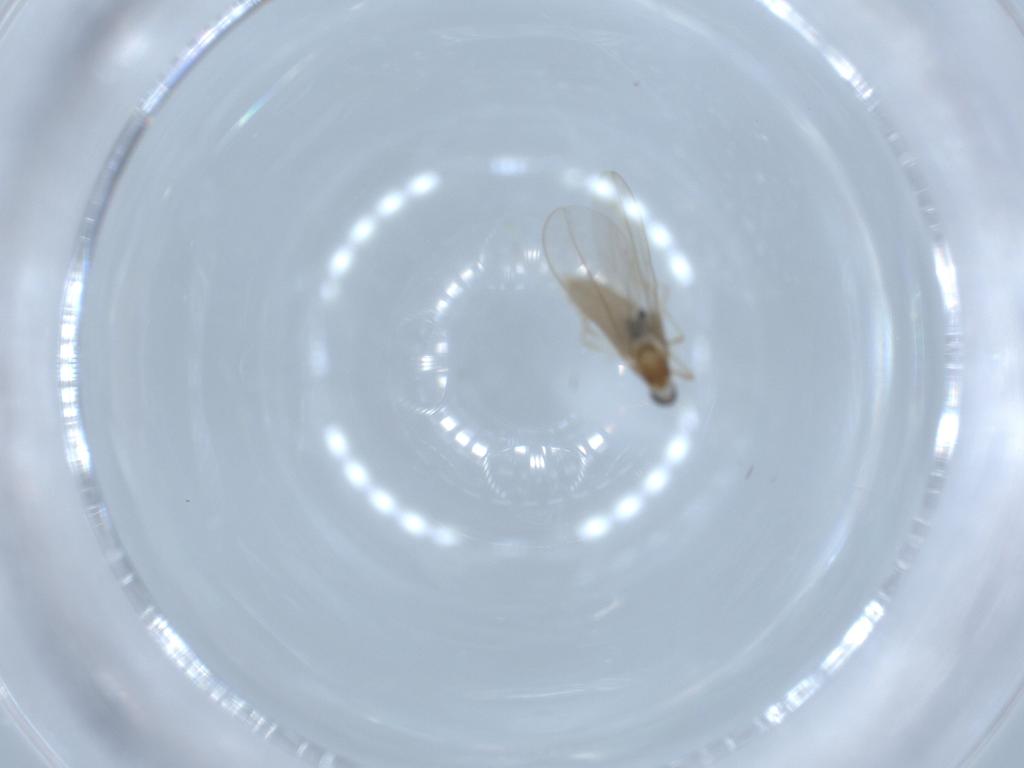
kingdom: Animalia
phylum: Arthropoda
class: Insecta
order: Diptera
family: Cecidomyiidae
